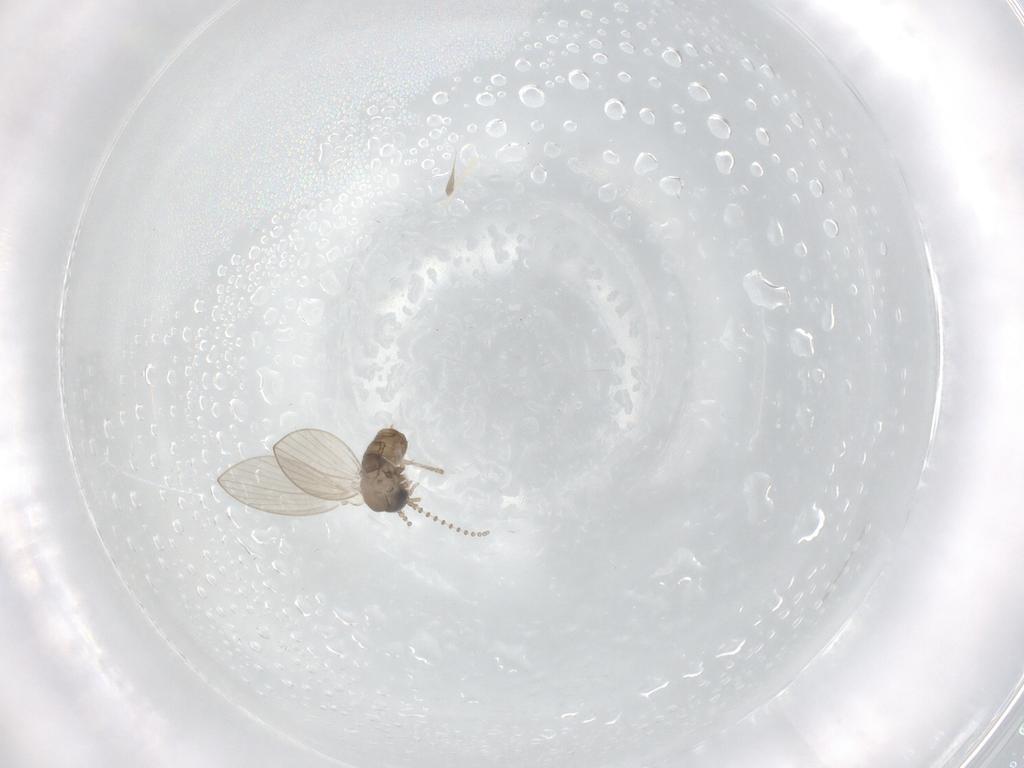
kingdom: Animalia
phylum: Arthropoda
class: Insecta
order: Diptera
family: Psychodidae
